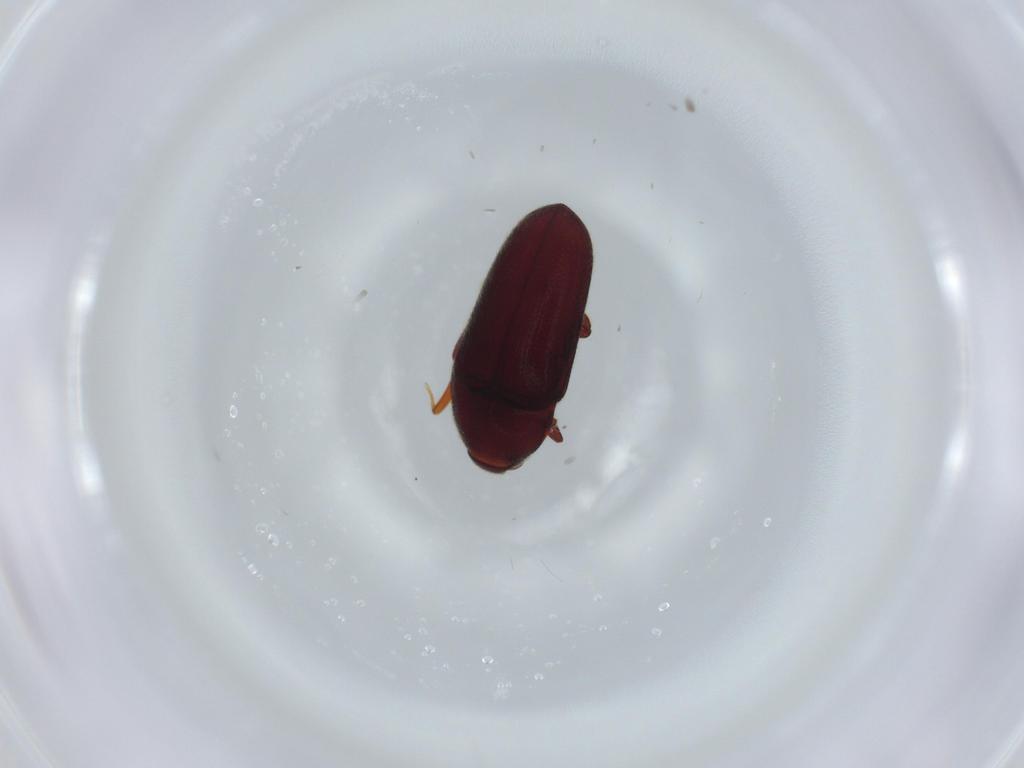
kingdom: Animalia
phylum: Arthropoda
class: Insecta
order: Coleoptera
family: Throscidae
